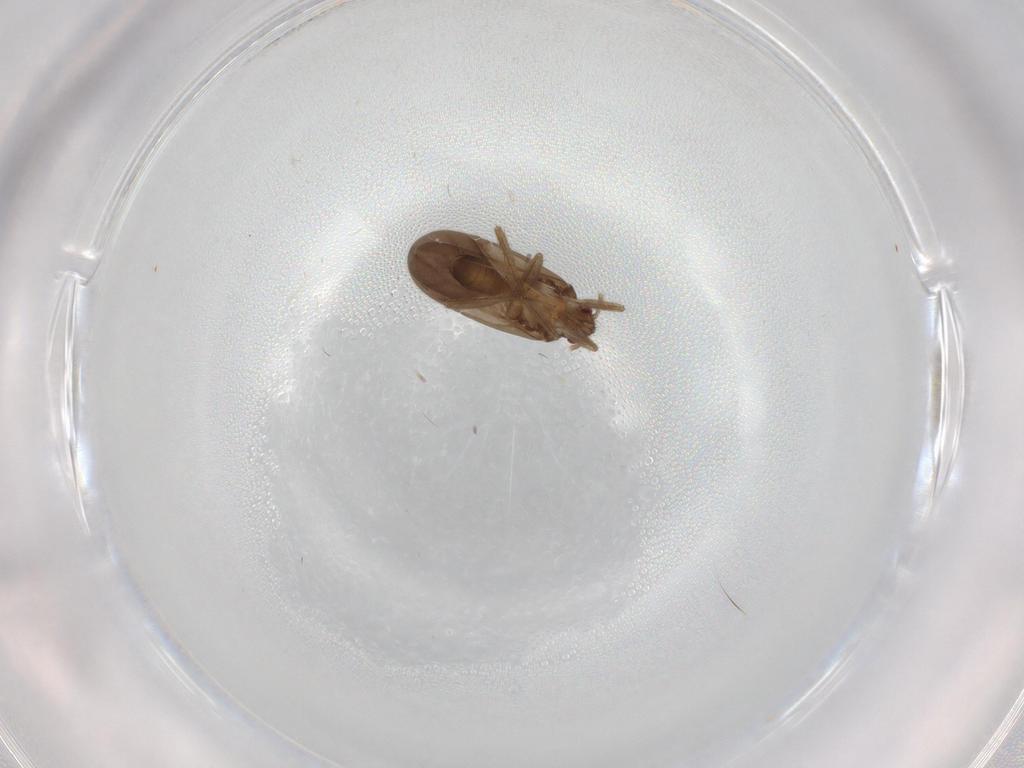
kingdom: Animalia
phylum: Arthropoda
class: Insecta
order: Hemiptera
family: Ceratocombidae
